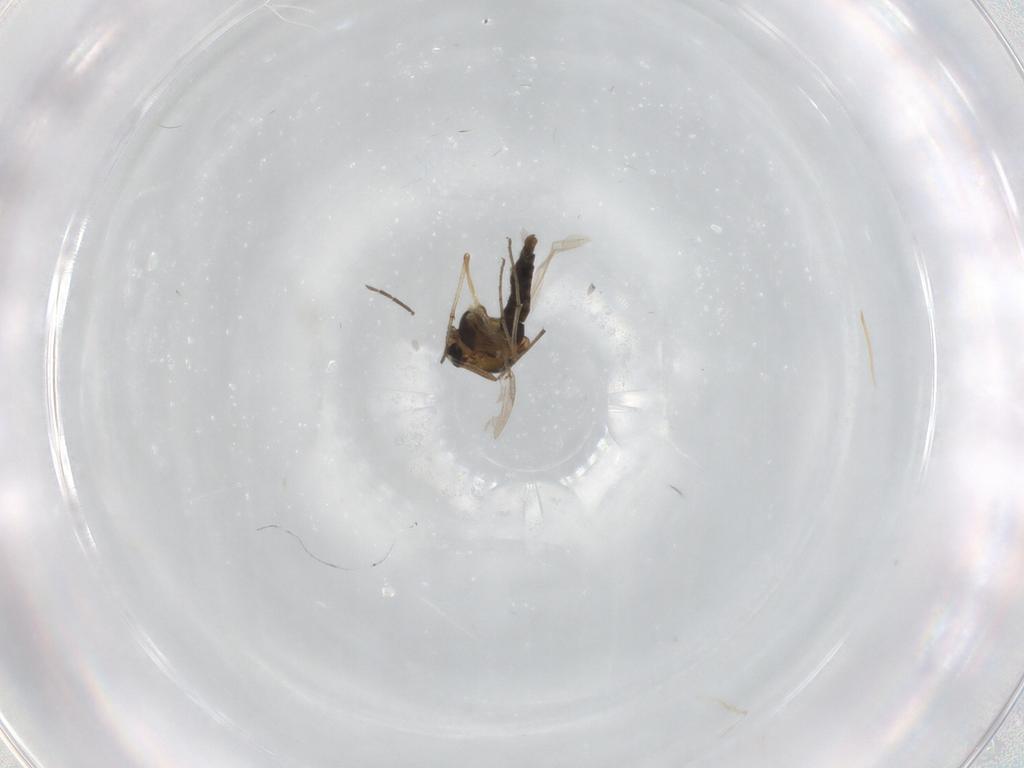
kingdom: Animalia
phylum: Arthropoda
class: Insecta
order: Diptera
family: Chironomidae
